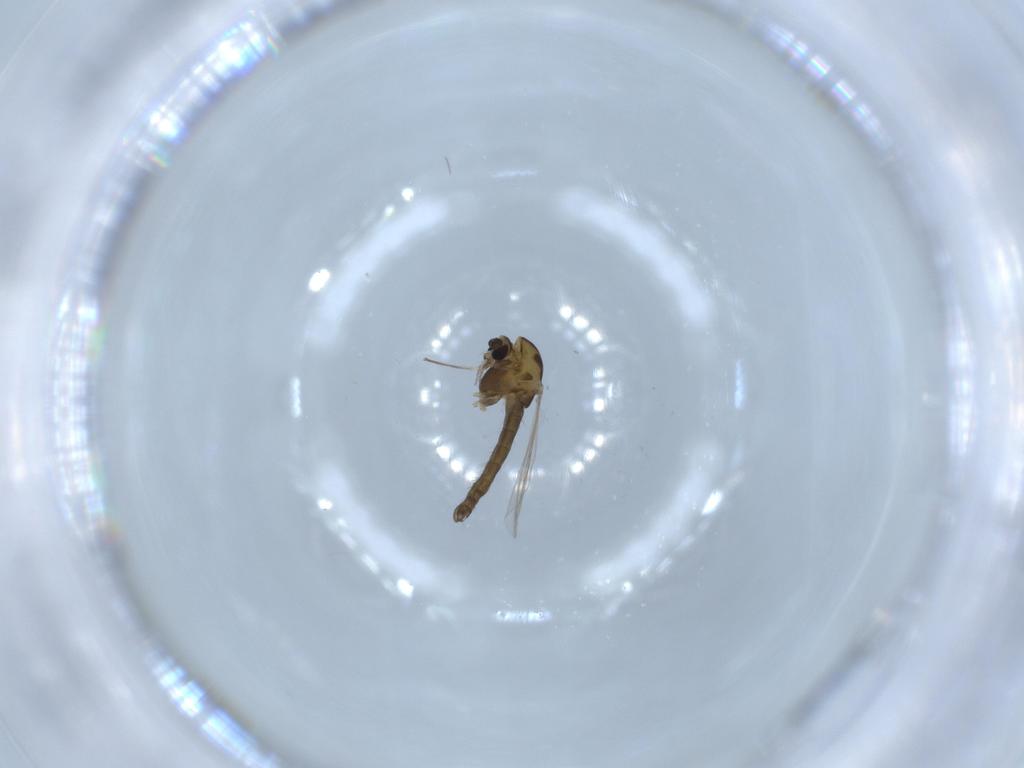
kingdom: Animalia
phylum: Arthropoda
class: Insecta
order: Diptera
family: Chironomidae
